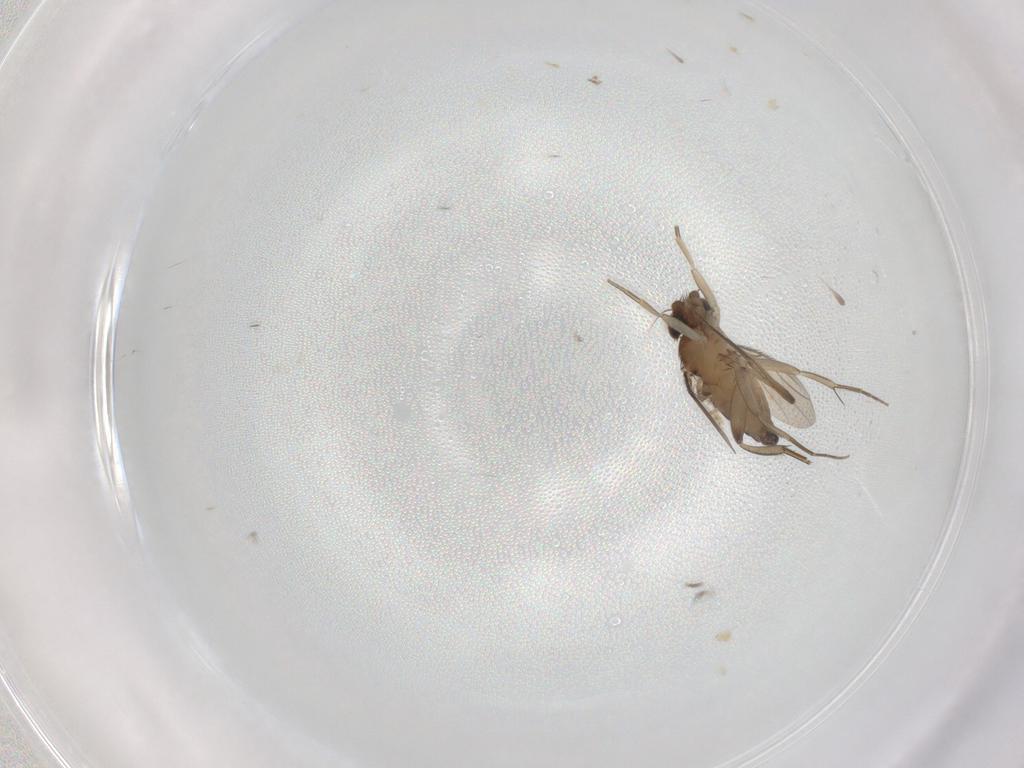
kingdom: Animalia
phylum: Arthropoda
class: Insecta
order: Diptera
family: Phoridae
